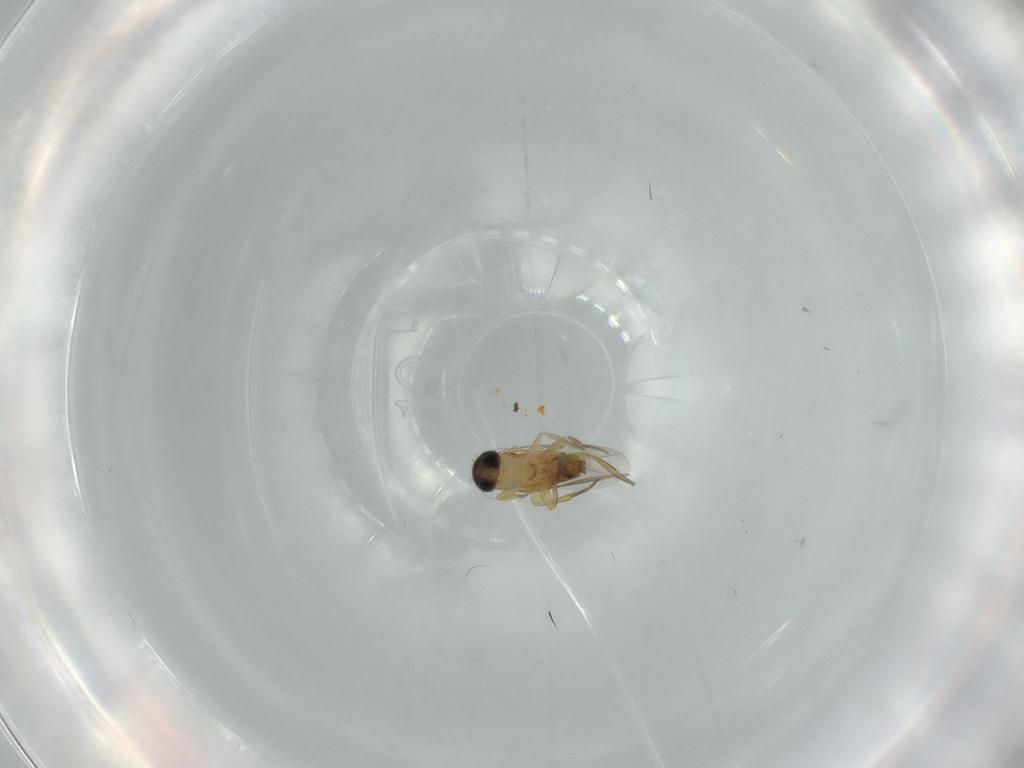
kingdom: Animalia
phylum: Arthropoda
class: Insecta
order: Diptera
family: Phoridae
